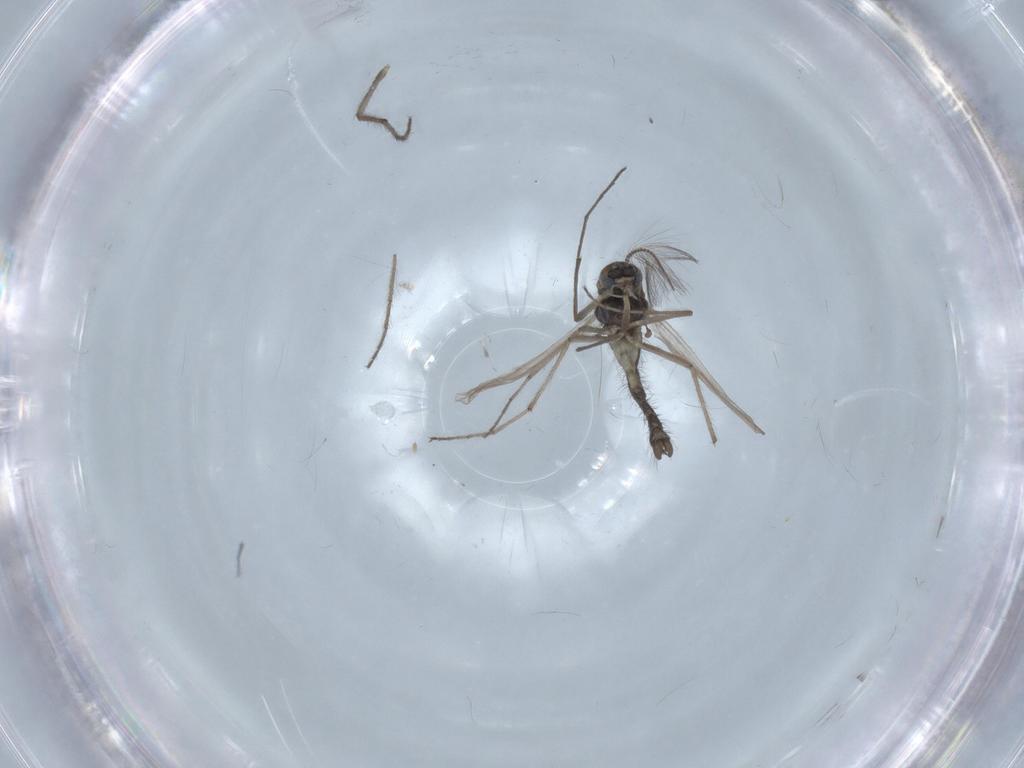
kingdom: Animalia
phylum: Arthropoda
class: Insecta
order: Diptera
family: Chironomidae
